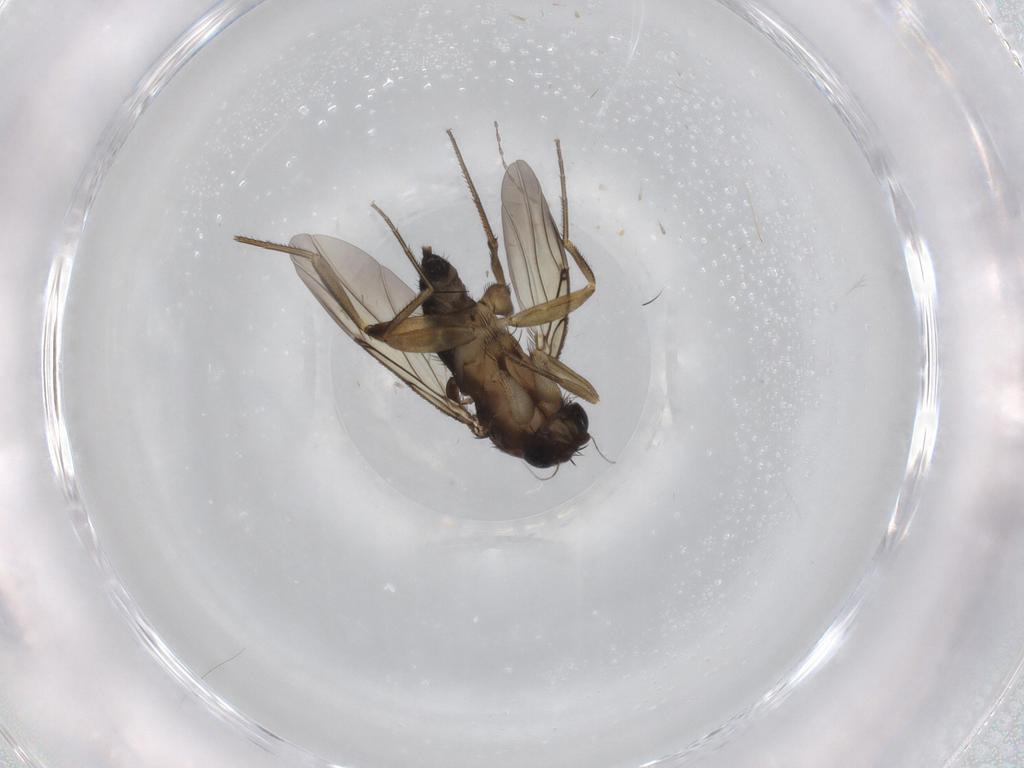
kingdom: Animalia
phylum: Arthropoda
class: Insecta
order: Diptera
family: Phoridae
